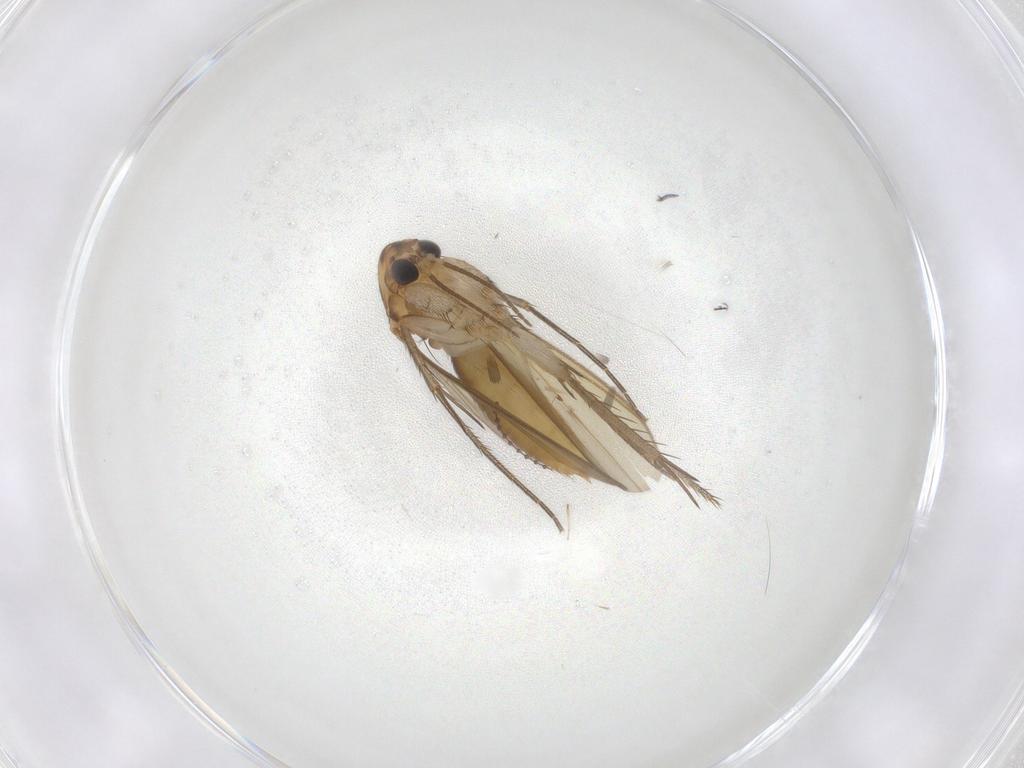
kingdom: Animalia
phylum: Arthropoda
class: Insecta
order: Diptera
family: Mycetophilidae
